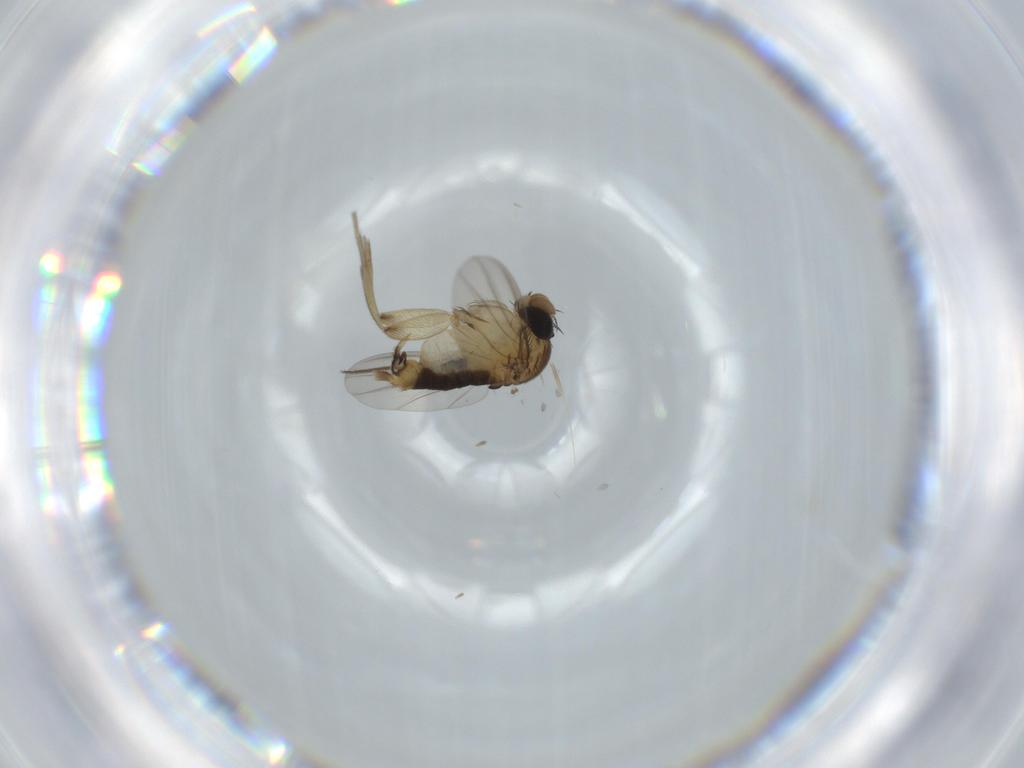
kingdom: Animalia
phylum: Arthropoda
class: Insecta
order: Diptera
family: Phoridae
